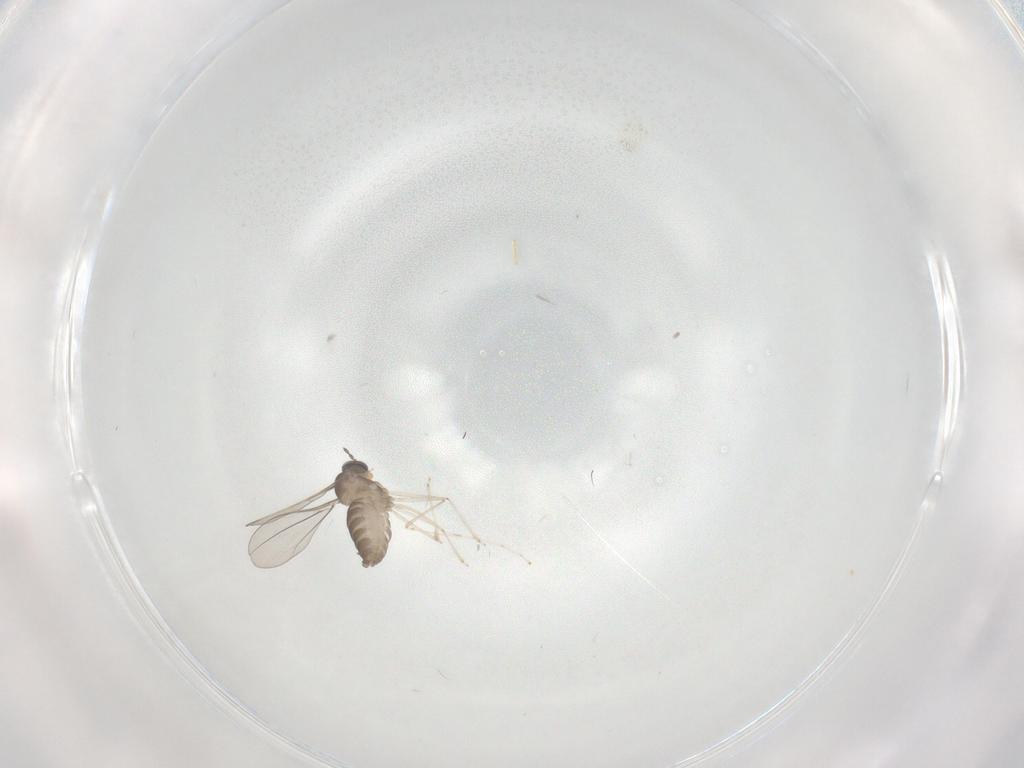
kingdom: Animalia
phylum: Arthropoda
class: Insecta
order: Diptera
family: Cecidomyiidae
